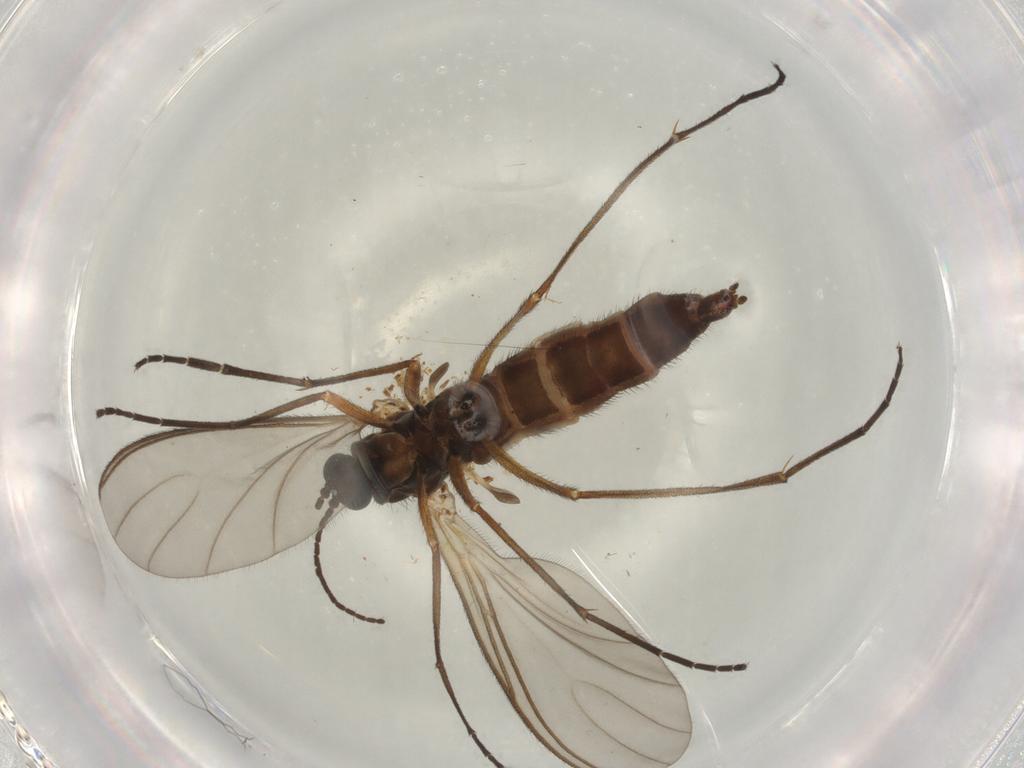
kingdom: Animalia
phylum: Arthropoda
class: Insecta
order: Diptera
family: Sciaridae
